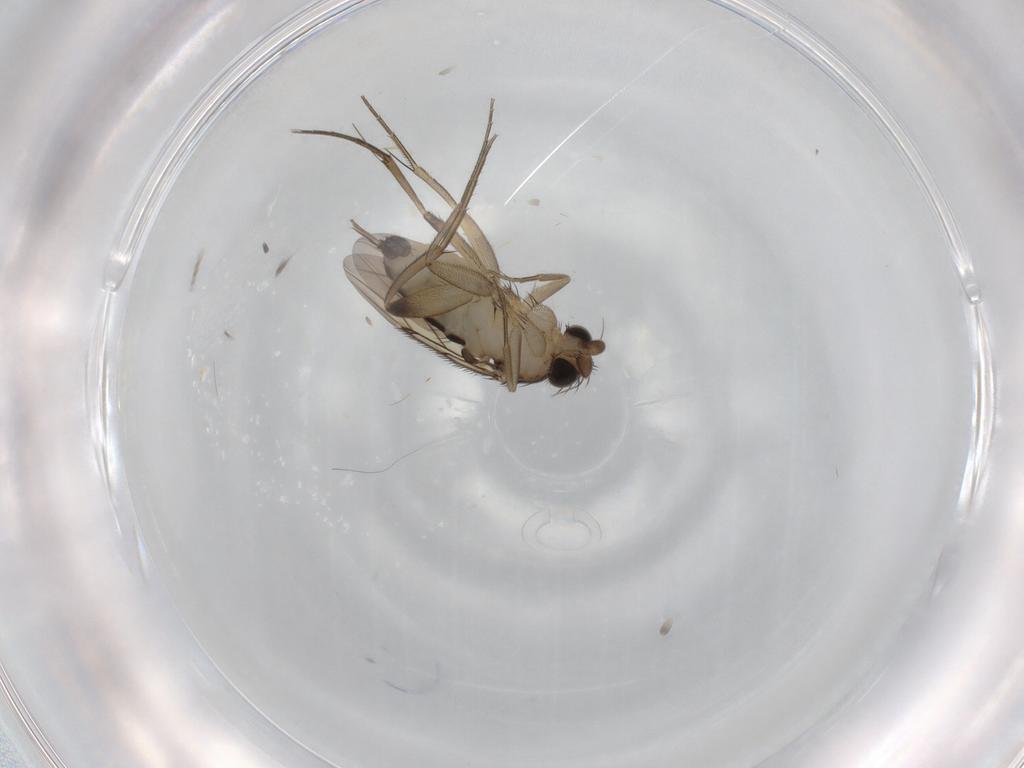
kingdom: Animalia
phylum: Arthropoda
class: Insecta
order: Diptera
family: Phoridae
